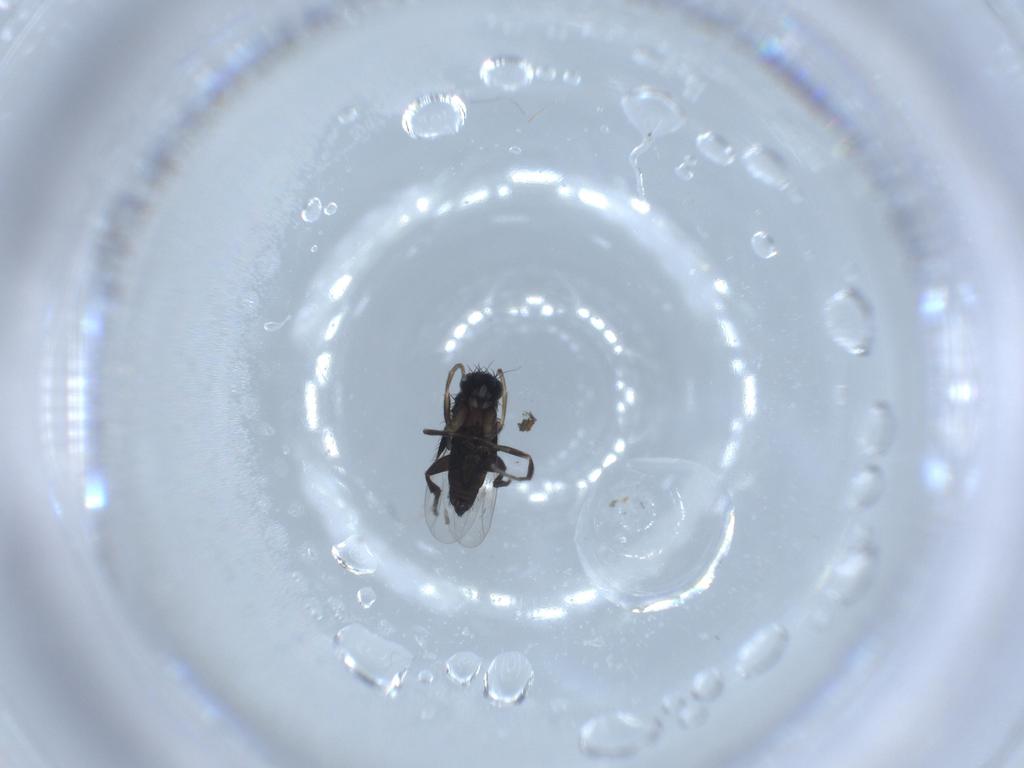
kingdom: Animalia
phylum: Arthropoda
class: Insecta
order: Diptera
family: Phoridae
